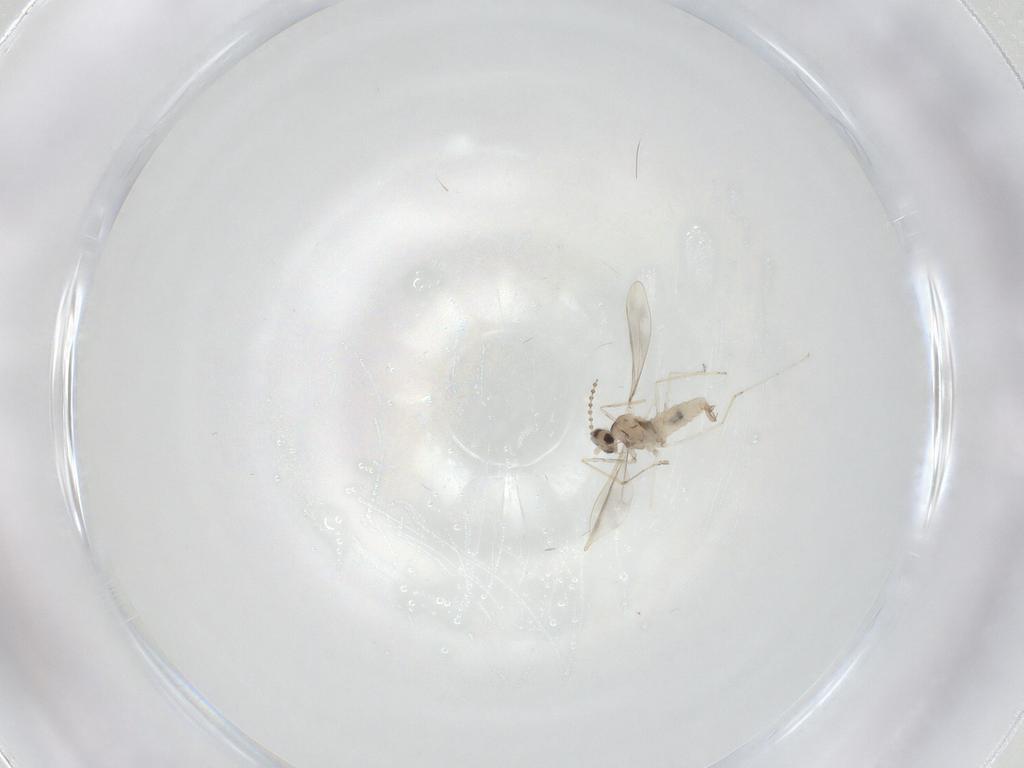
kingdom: Animalia
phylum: Arthropoda
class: Insecta
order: Diptera
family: Cecidomyiidae
